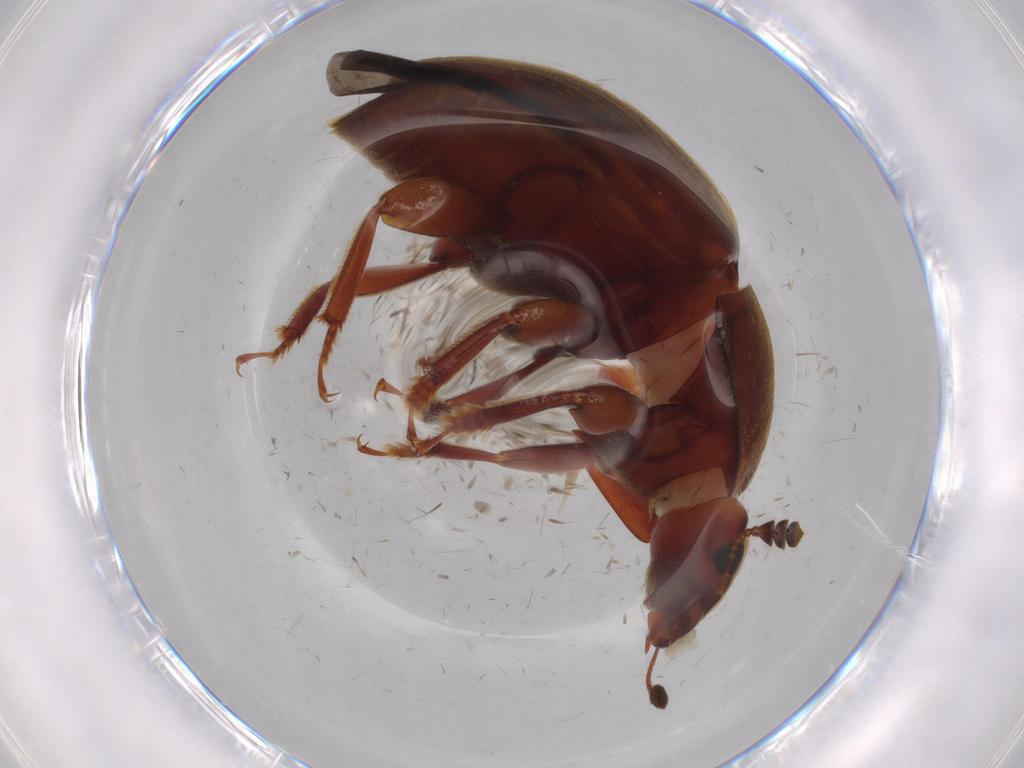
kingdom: Animalia
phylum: Arthropoda
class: Insecta
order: Coleoptera
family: Nitidulidae
